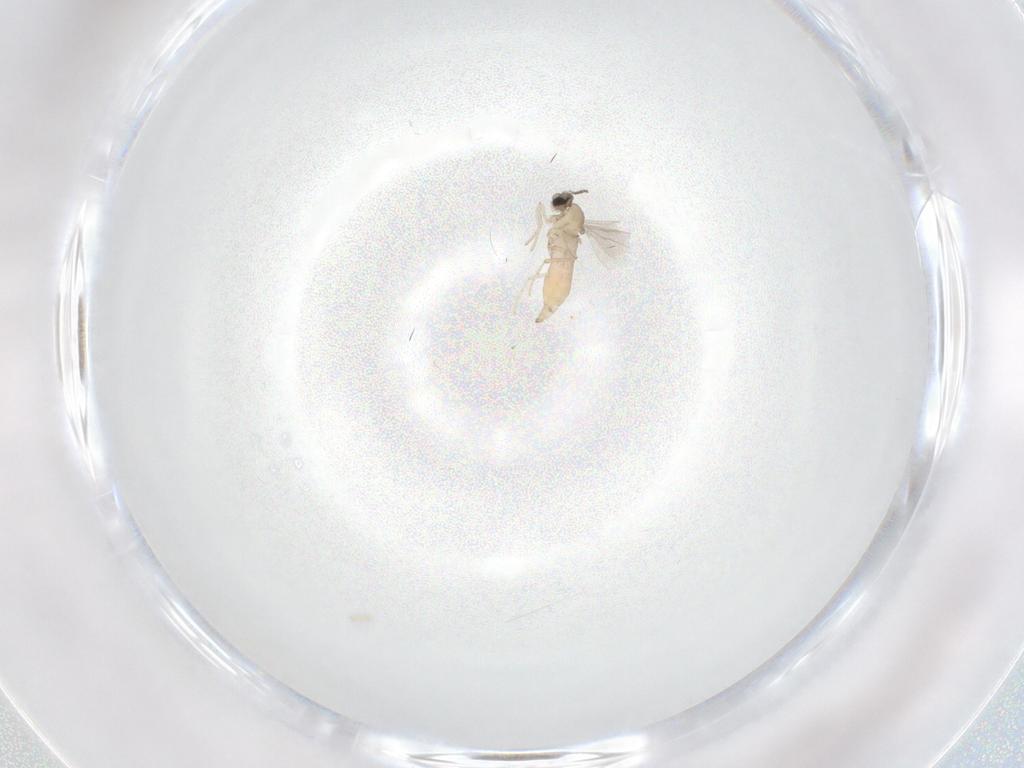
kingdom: Animalia
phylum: Arthropoda
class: Insecta
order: Diptera
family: Cecidomyiidae
